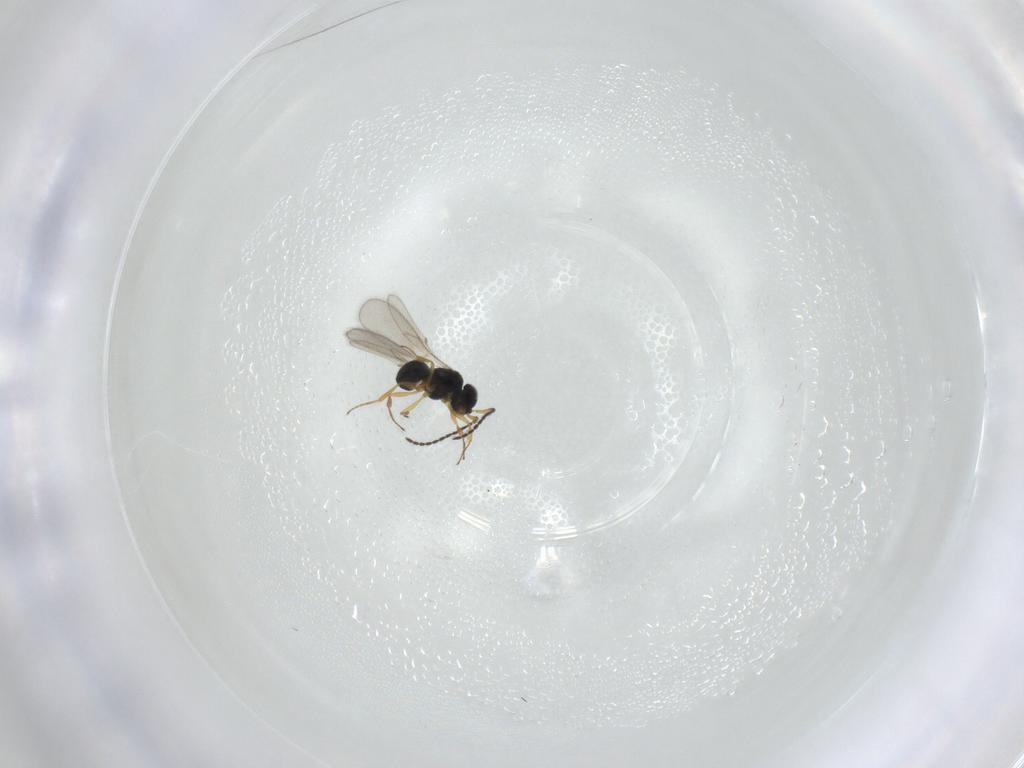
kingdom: Animalia
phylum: Arthropoda
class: Insecta
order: Hymenoptera
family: Scelionidae
